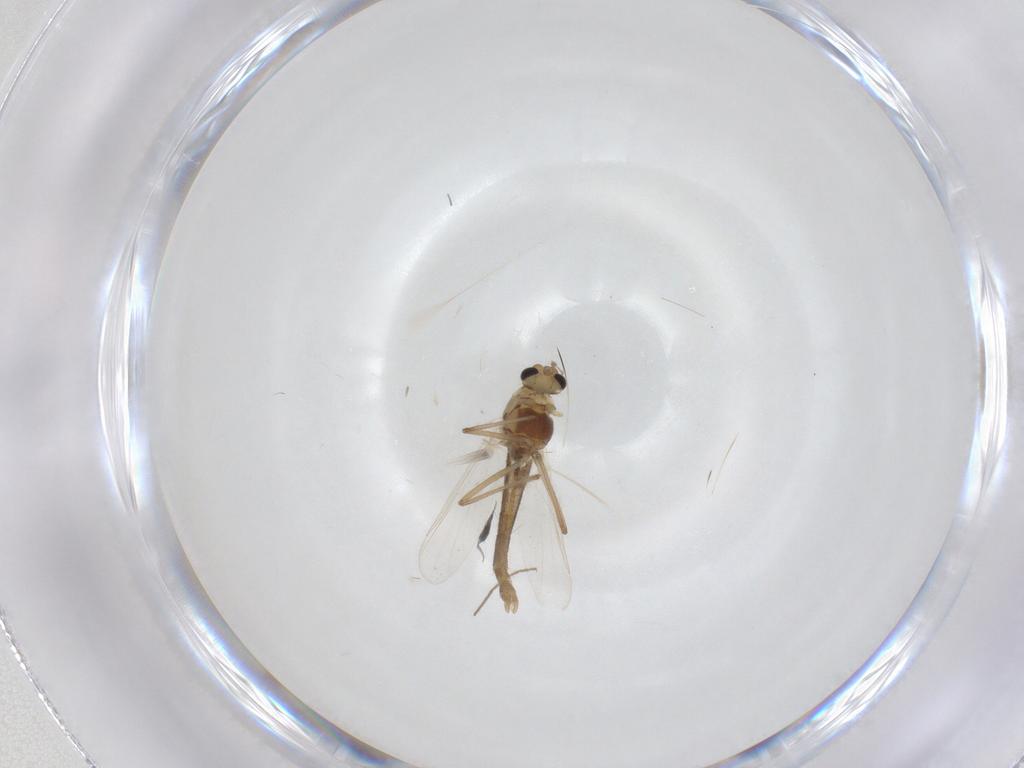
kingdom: Animalia
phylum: Arthropoda
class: Insecta
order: Diptera
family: Chironomidae
